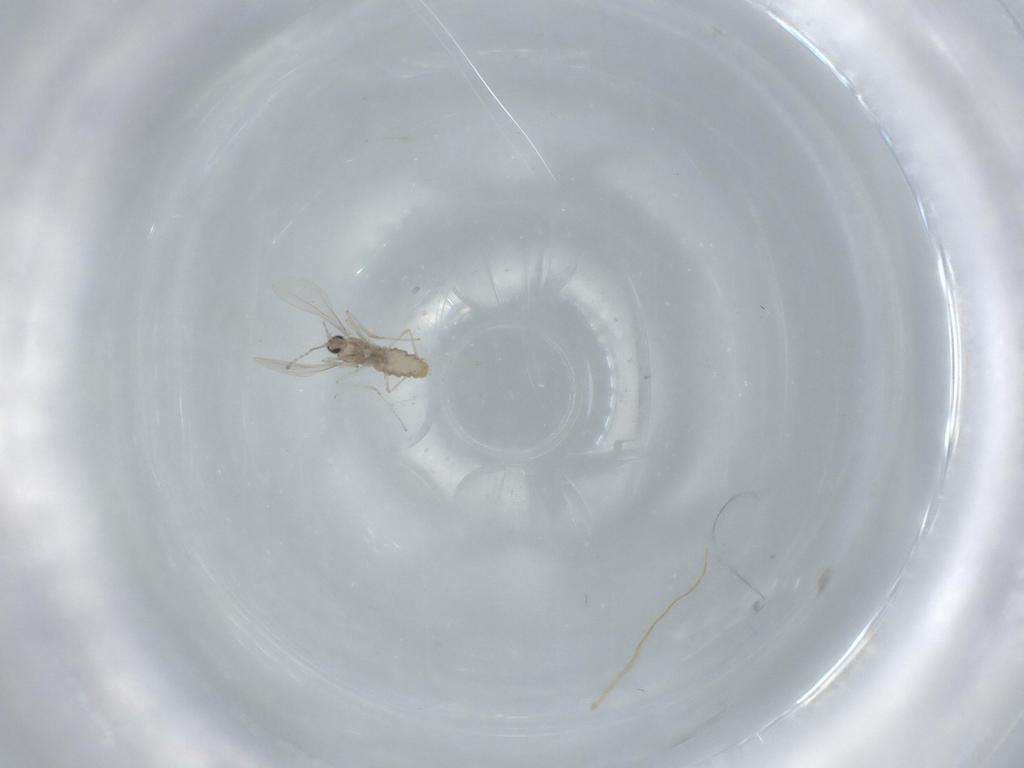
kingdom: Animalia
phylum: Arthropoda
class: Insecta
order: Diptera
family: Cecidomyiidae
